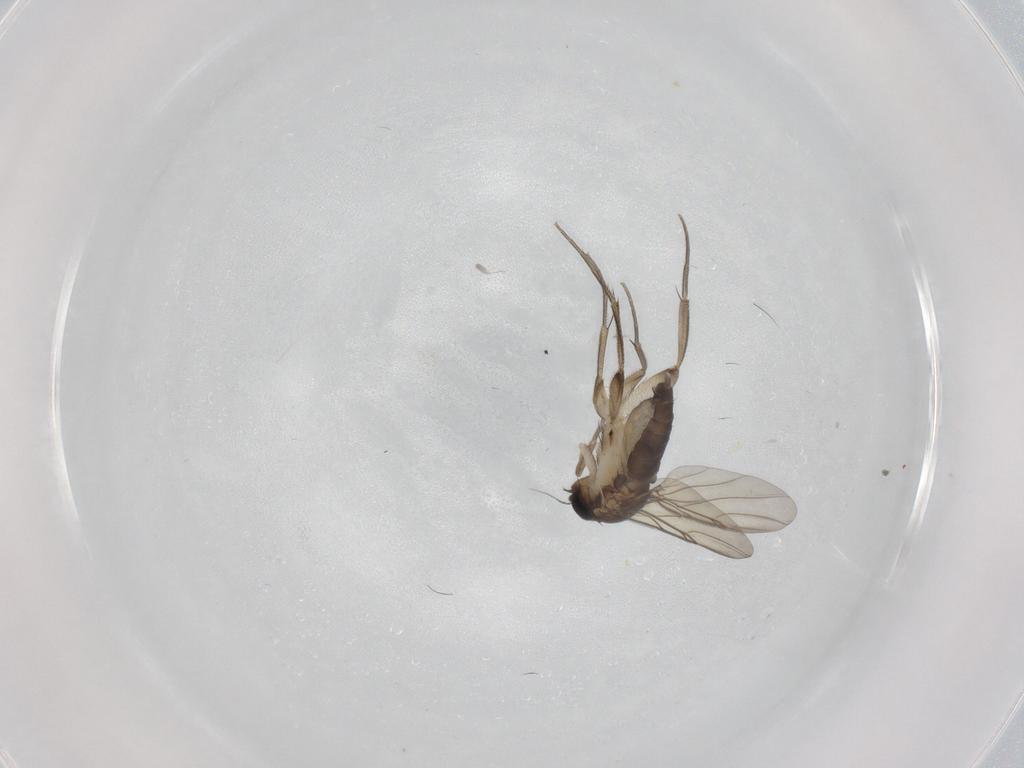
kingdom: Animalia
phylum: Arthropoda
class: Insecta
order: Diptera
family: Phoridae
